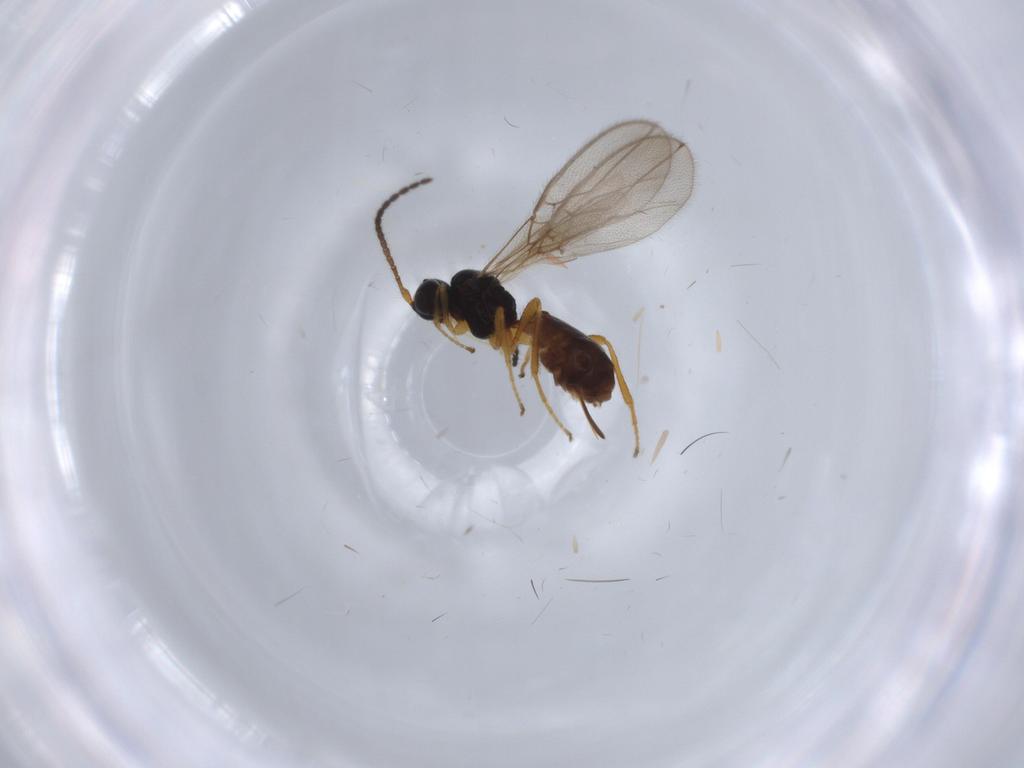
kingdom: Animalia
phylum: Arthropoda
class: Insecta
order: Hymenoptera
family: Braconidae
